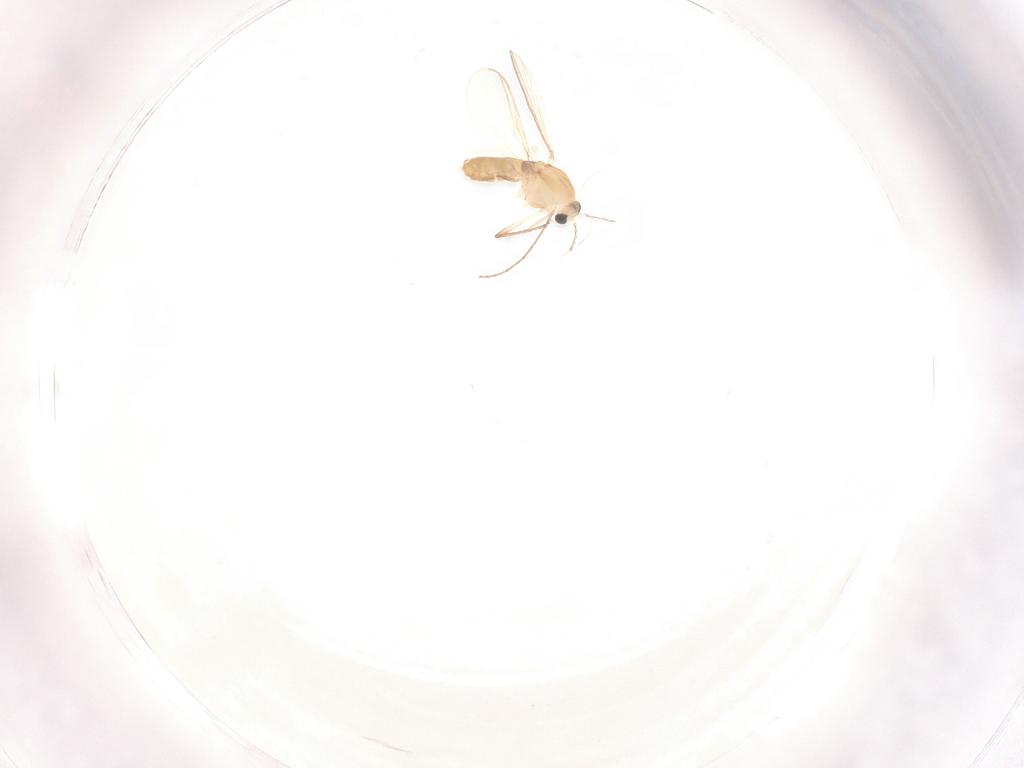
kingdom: Animalia
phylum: Arthropoda
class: Insecta
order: Diptera
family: Chironomidae
